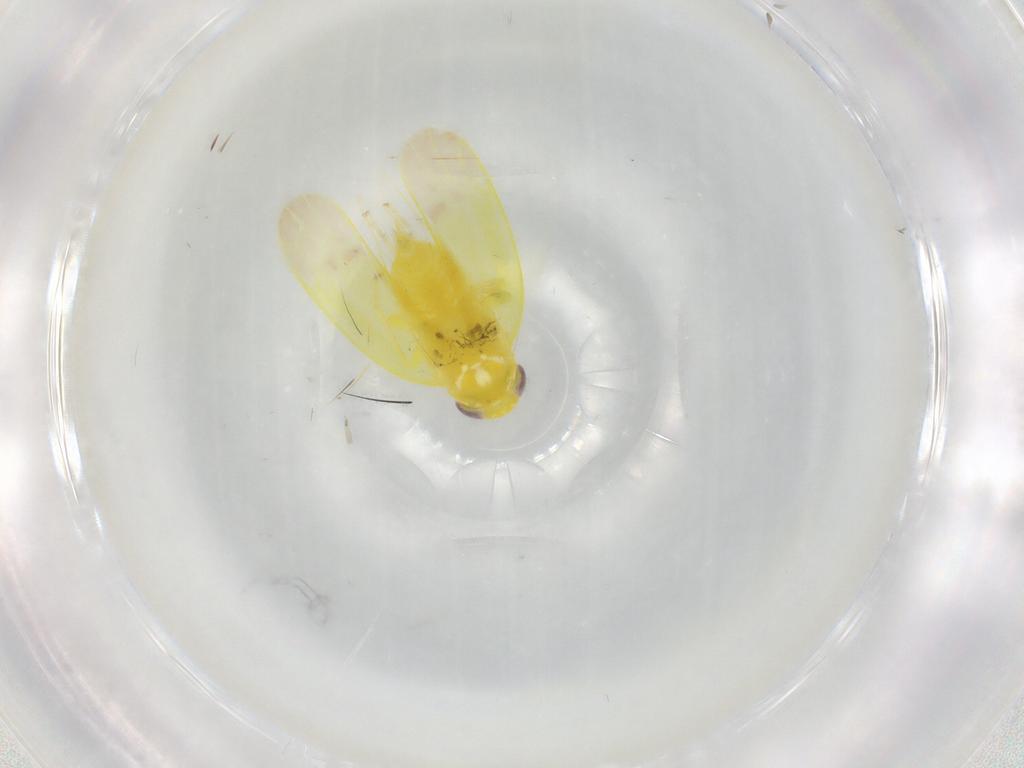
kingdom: Animalia
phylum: Arthropoda
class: Insecta
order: Hemiptera
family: Cicadellidae
